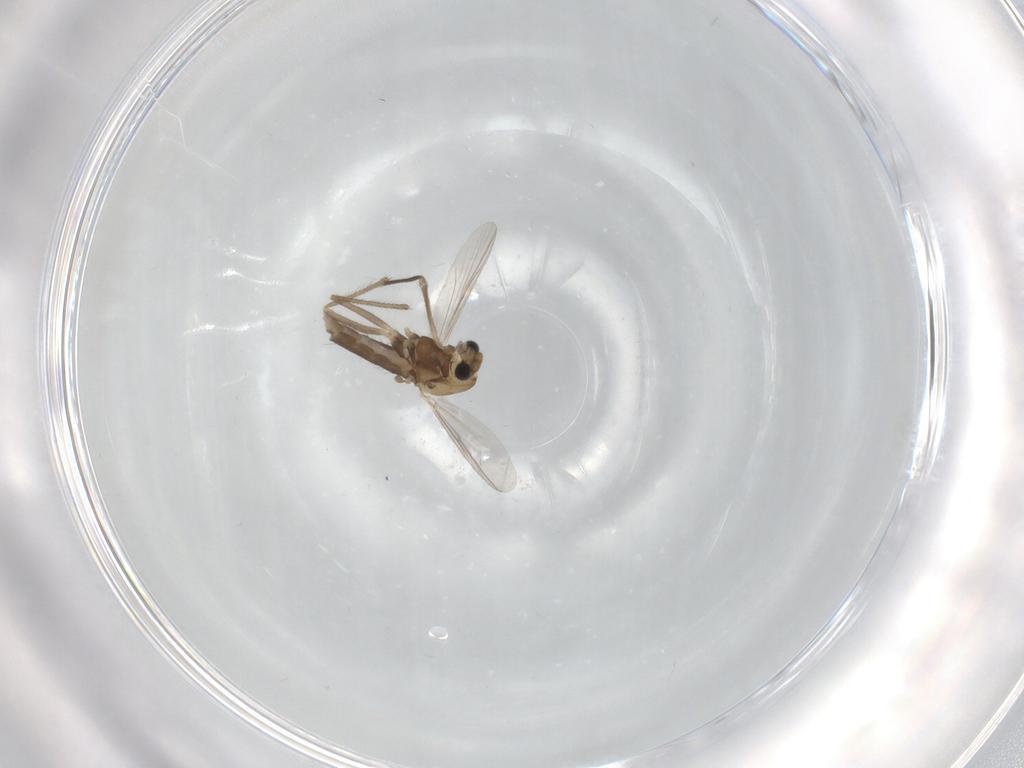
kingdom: Animalia
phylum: Arthropoda
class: Insecta
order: Diptera
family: Chironomidae
